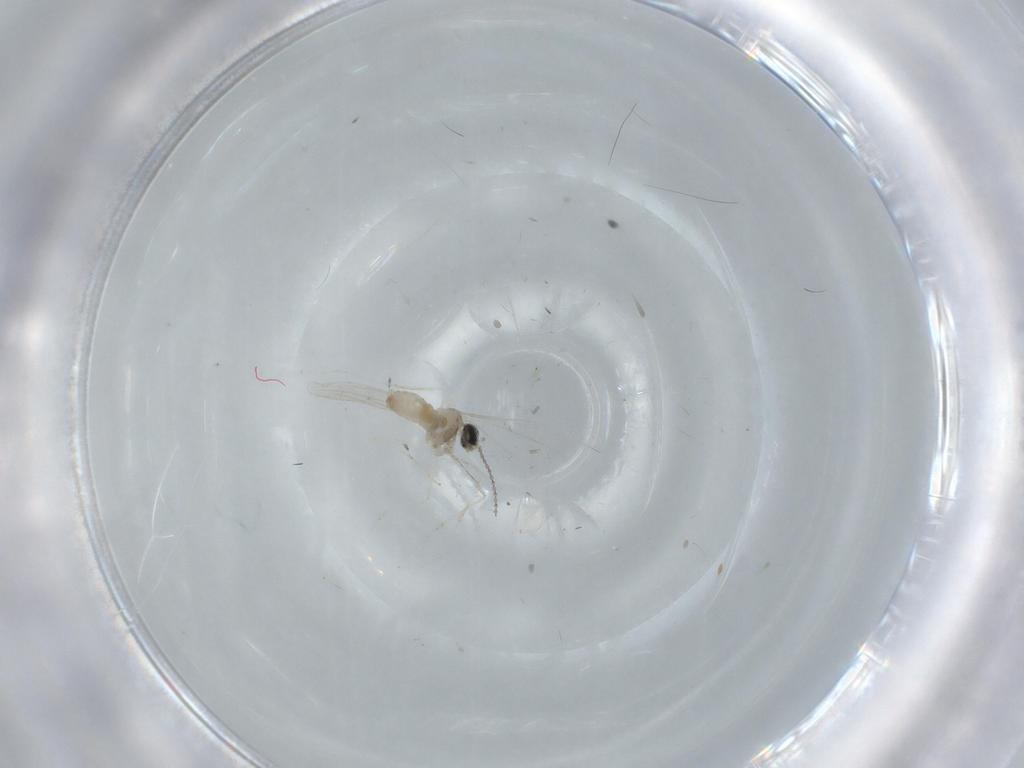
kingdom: Animalia
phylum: Arthropoda
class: Insecta
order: Diptera
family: Cecidomyiidae
